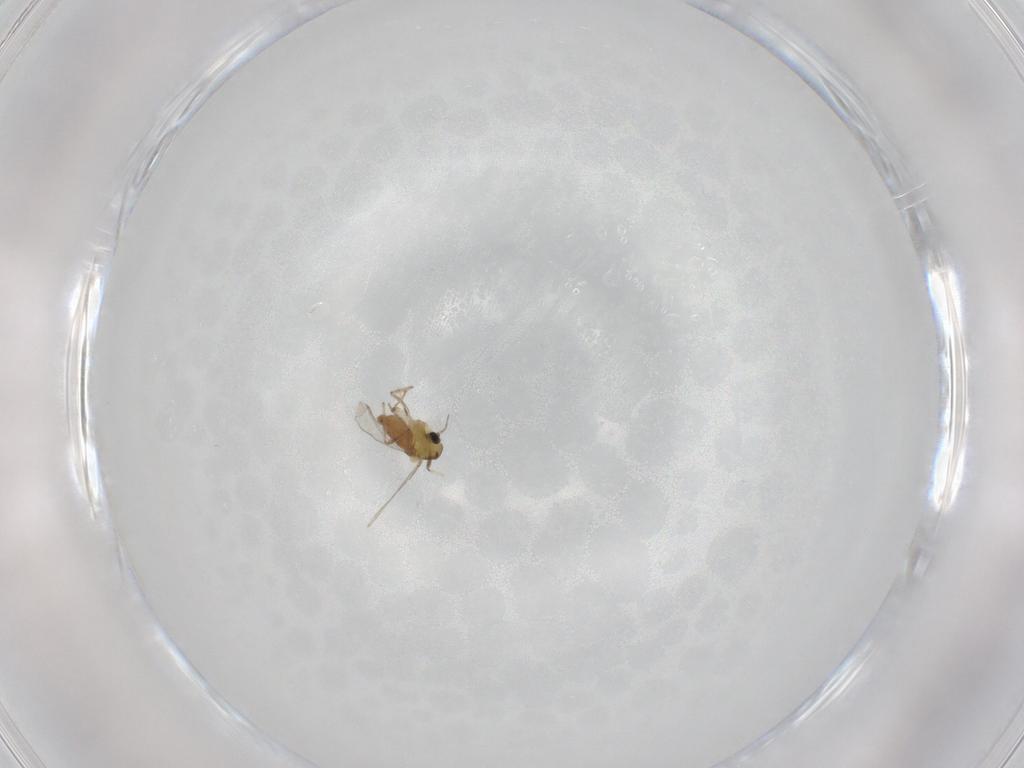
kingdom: Animalia
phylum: Arthropoda
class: Insecta
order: Diptera
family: Chironomidae
